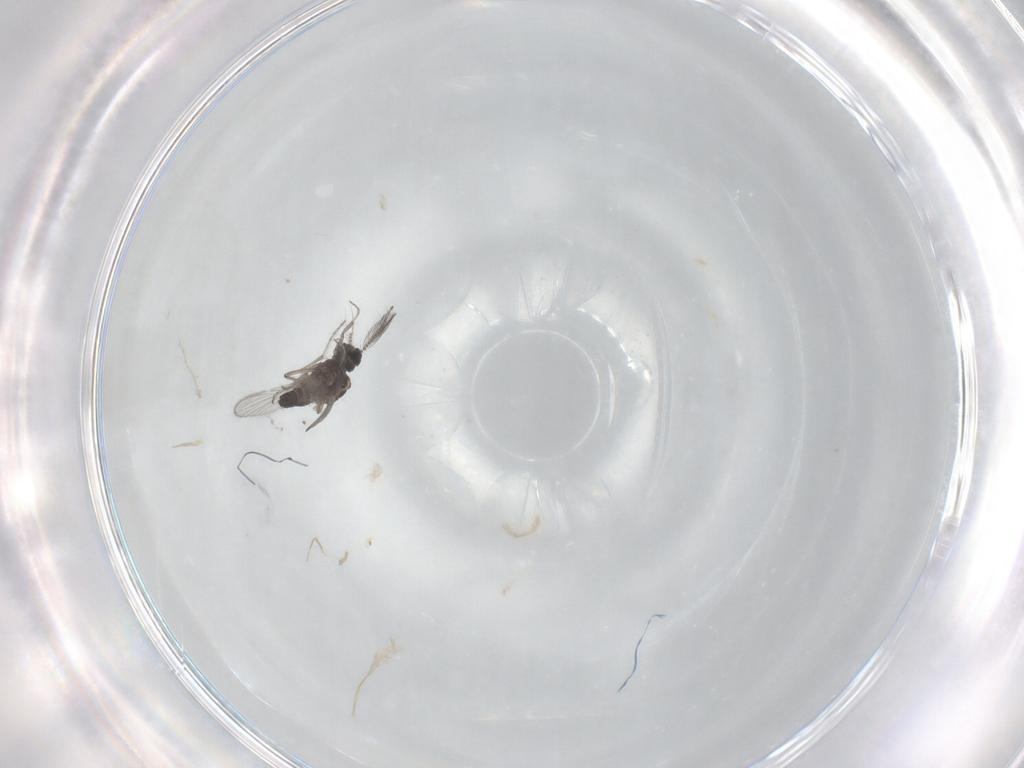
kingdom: Animalia
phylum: Arthropoda
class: Insecta
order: Diptera
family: Ceratopogonidae
